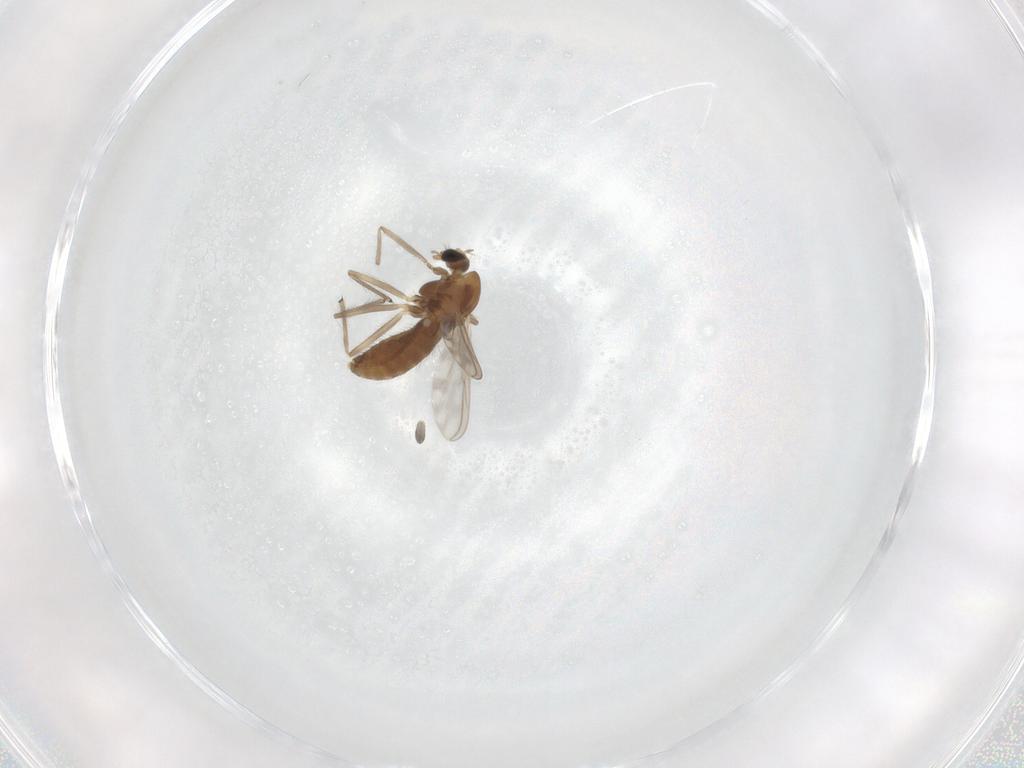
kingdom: Animalia
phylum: Arthropoda
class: Insecta
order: Diptera
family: Chironomidae
